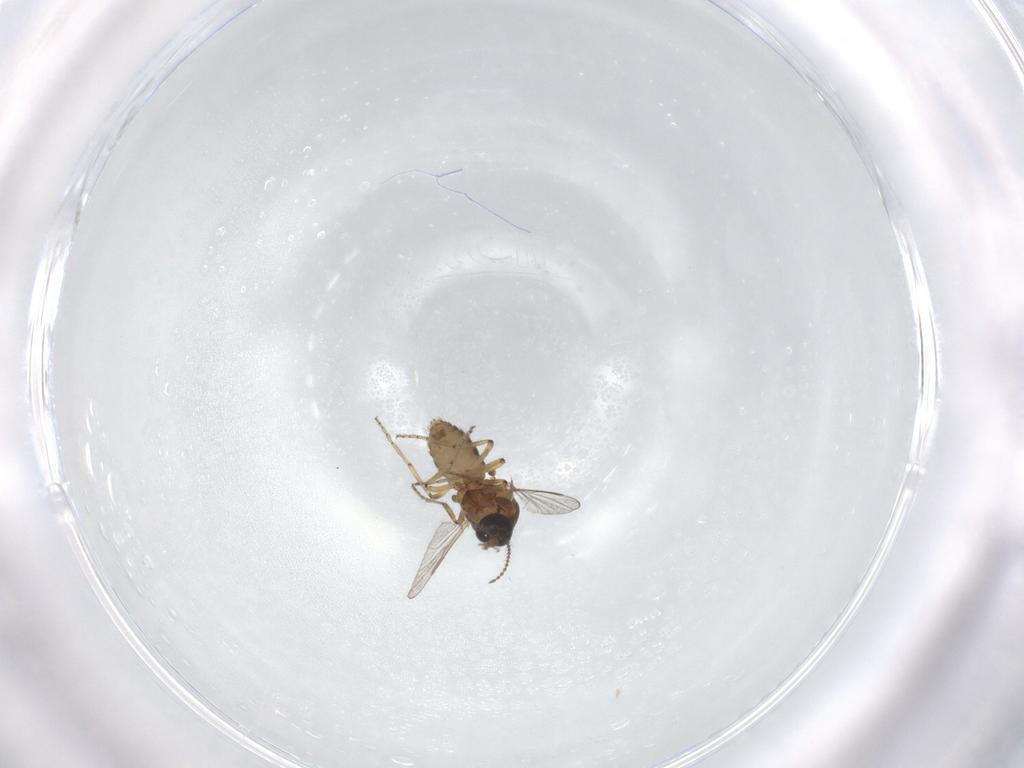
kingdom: Animalia
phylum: Arthropoda
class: Insecta
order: Diptera
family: Ceratopogonidae
